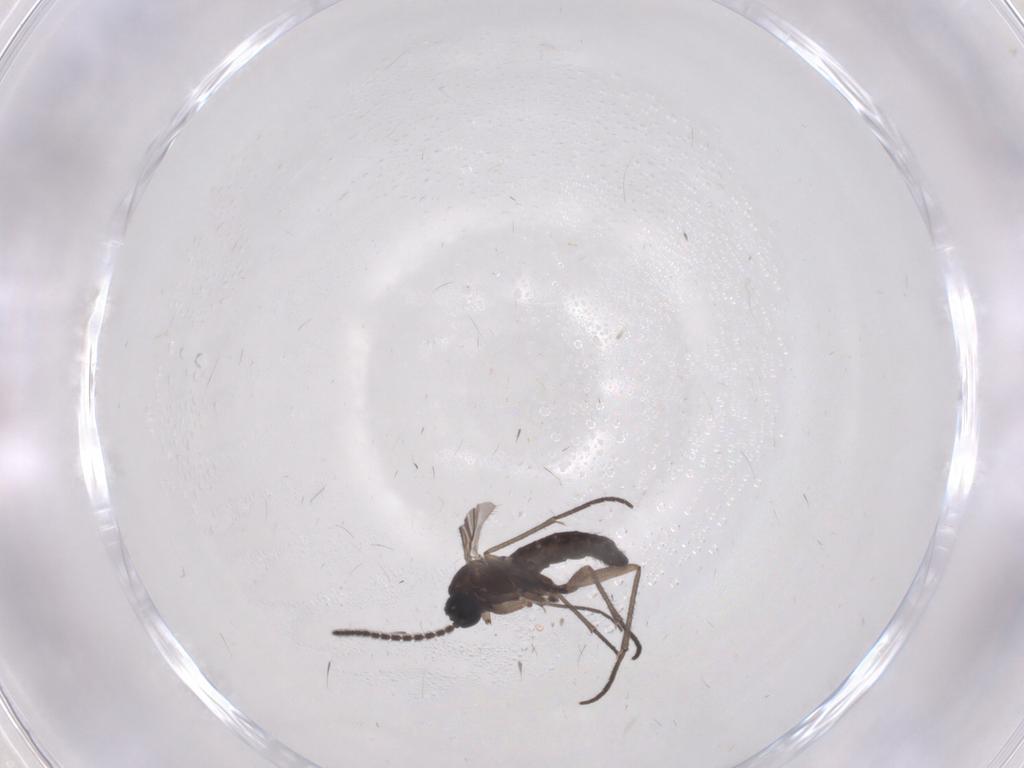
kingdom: Animalia
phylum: Arthropoda
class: Insecta
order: Diptera
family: Sciaridae
